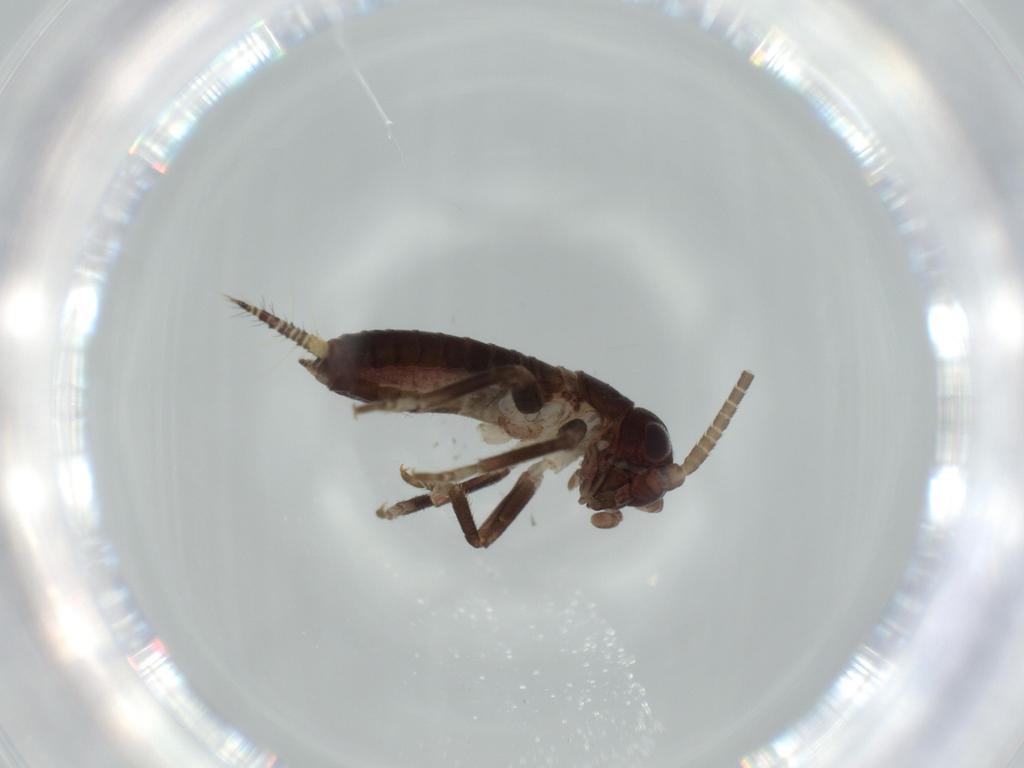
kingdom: Animalia
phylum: Arthropoda
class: Insecta
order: Orthoptera
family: Gryllidae
